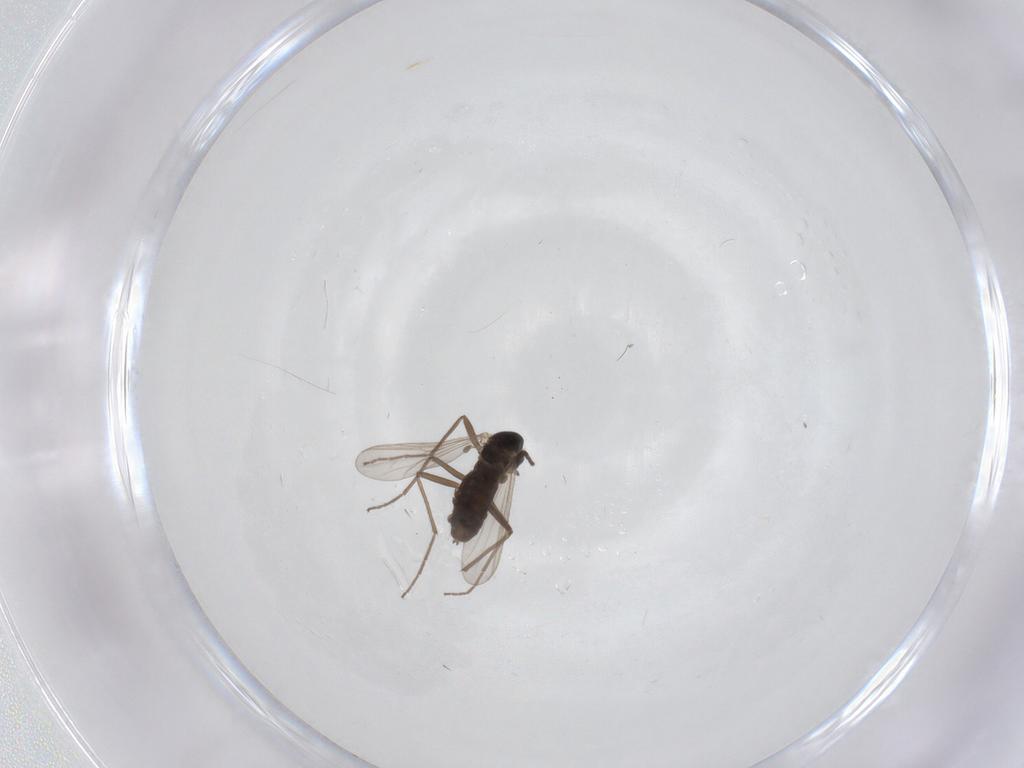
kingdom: Animalia
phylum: Arthropoda
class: Insecta
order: Diptera
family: Chironomidae
